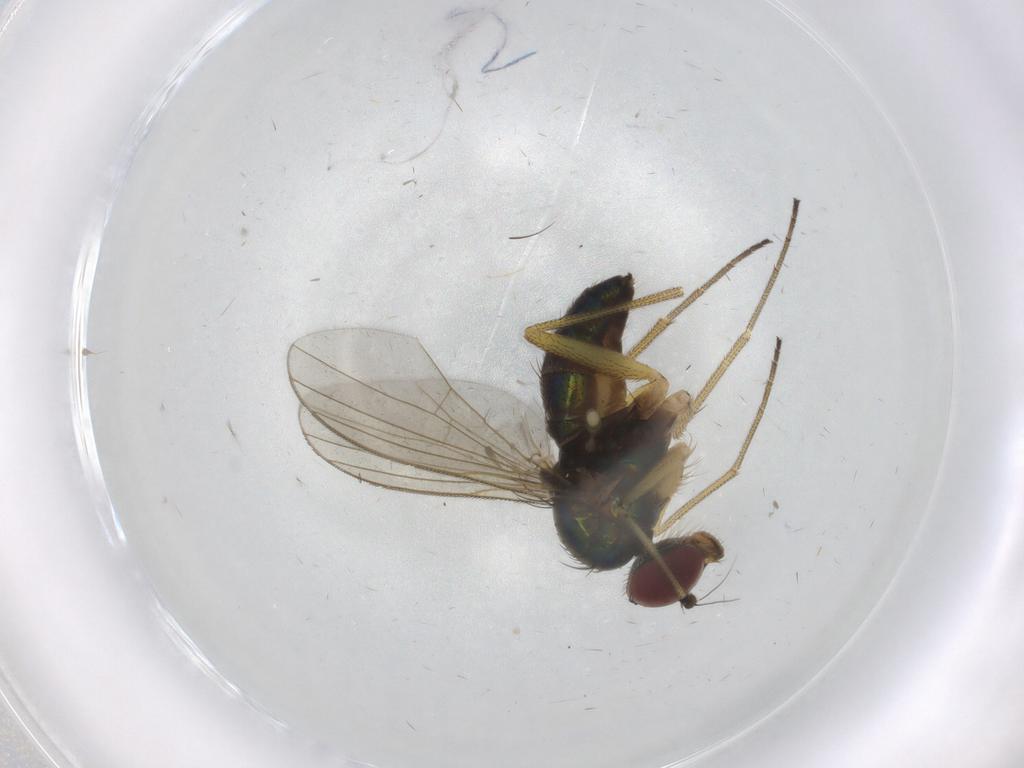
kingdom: Animalia
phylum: Arthropoda
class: Insecta
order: Diptera
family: Dolichopodidae
